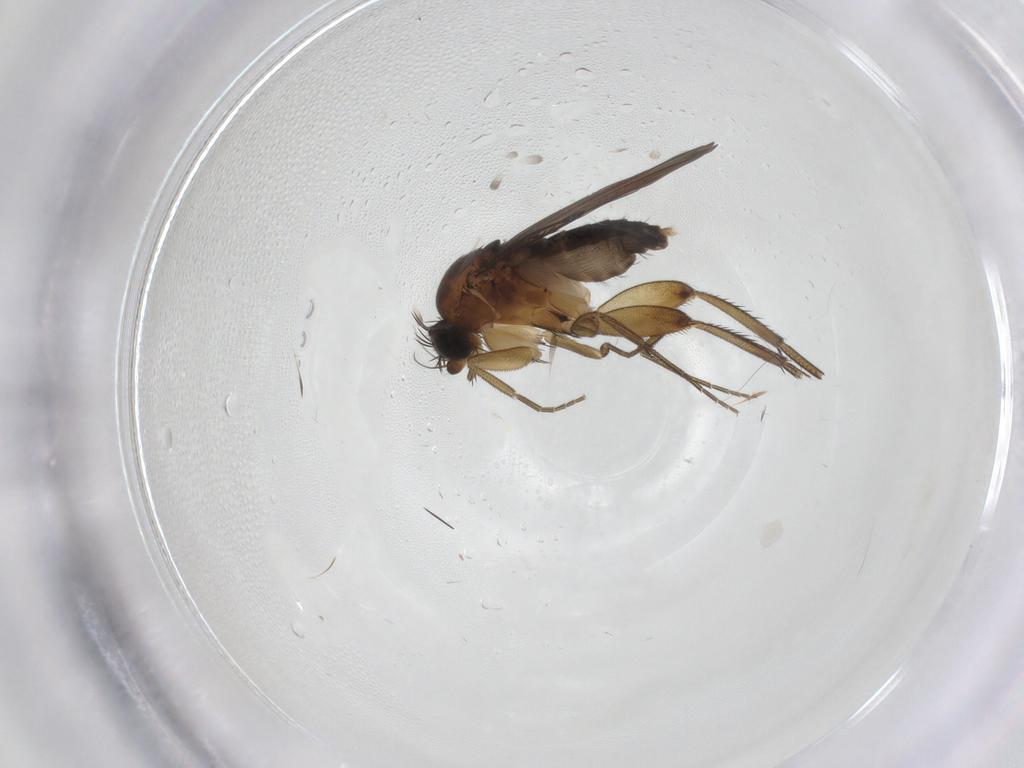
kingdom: Animalia
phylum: Arthropoda
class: Insecta
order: Diptera
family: Phoridae
